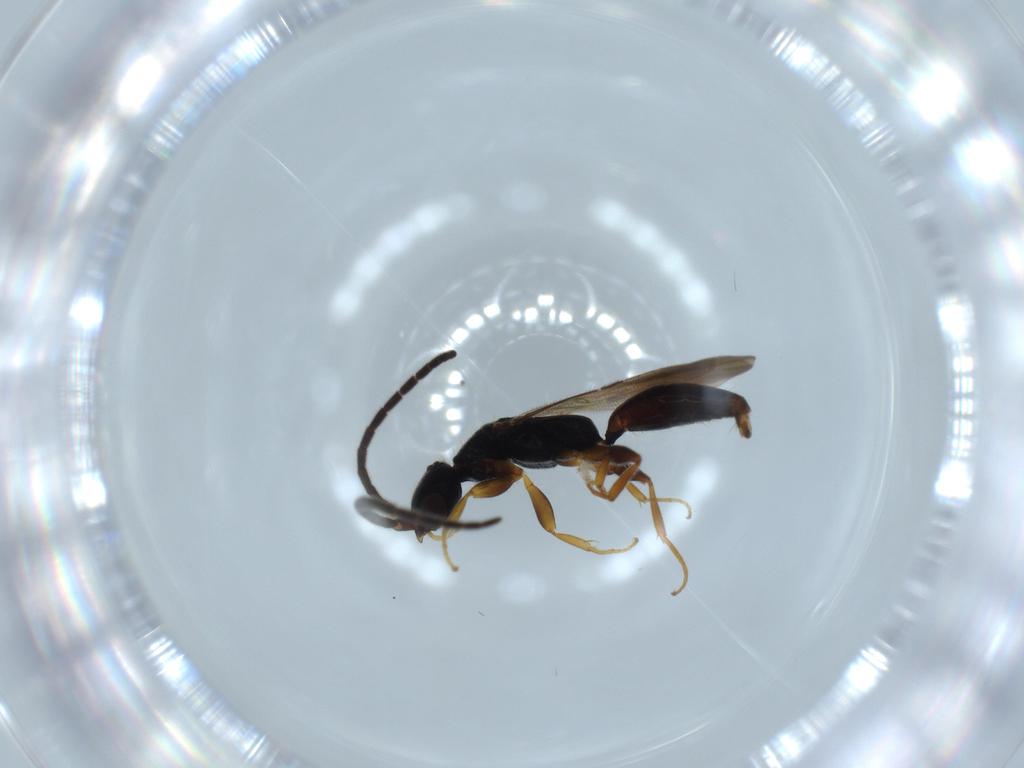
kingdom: Animalia
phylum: Arthropoda
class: Insecta
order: Hymenoptera
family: Bethylidae
